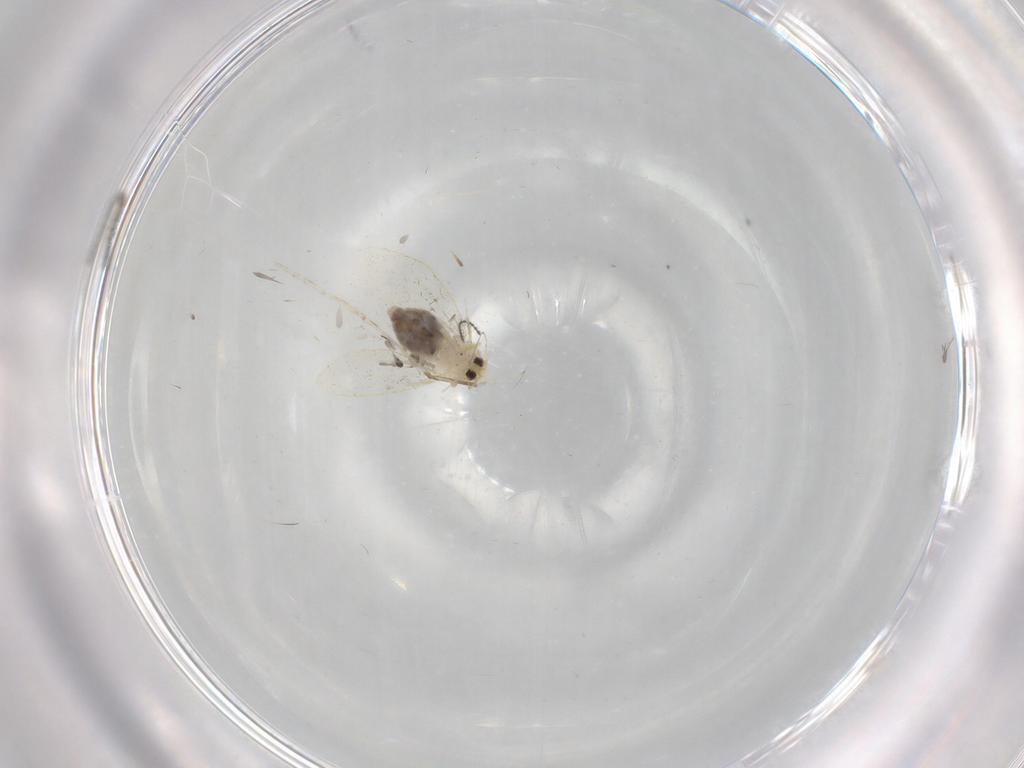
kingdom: Animalia
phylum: Arthropoda
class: Insecta
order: Hemiptera
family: Aleyrodidae
